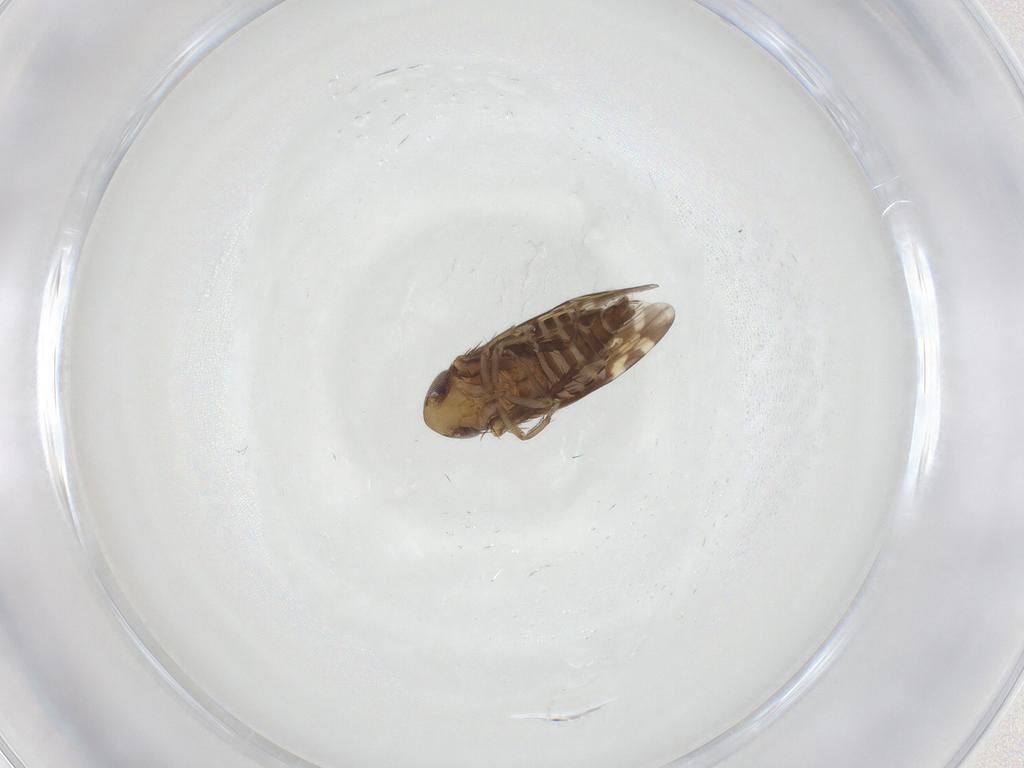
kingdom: Animalia
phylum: Arthropoda
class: Insecta
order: Hemiptera
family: Cicadellidae
